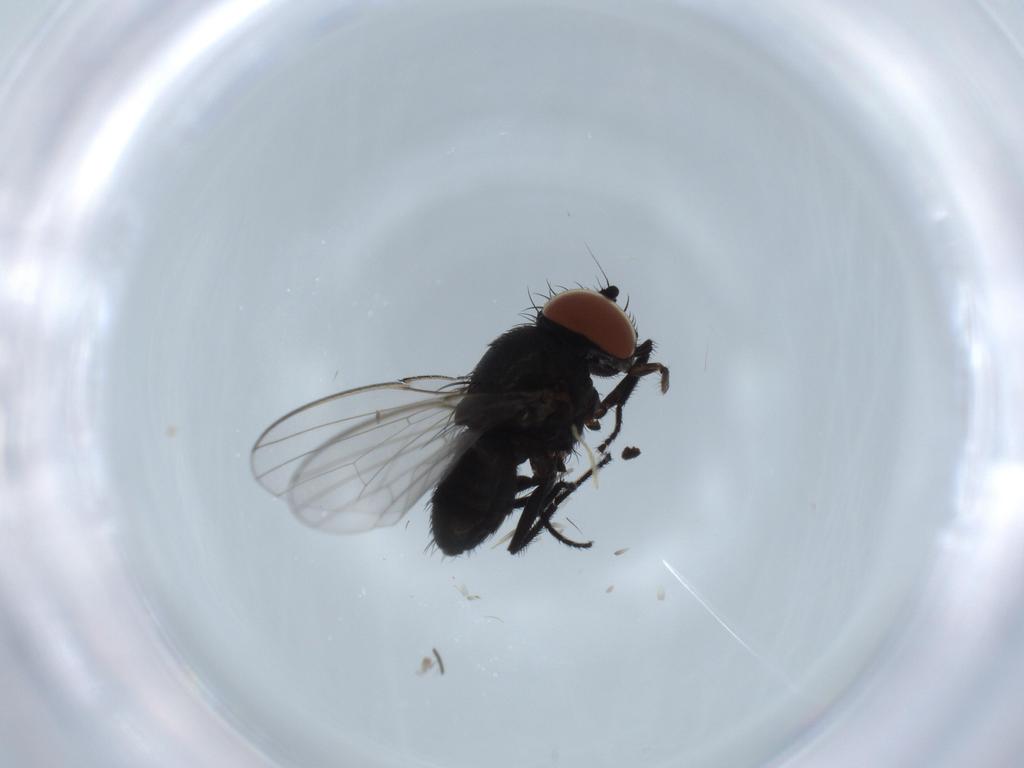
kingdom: Animalia
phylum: Arthropoda
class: Insecta
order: Diptera
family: Milichiidae
